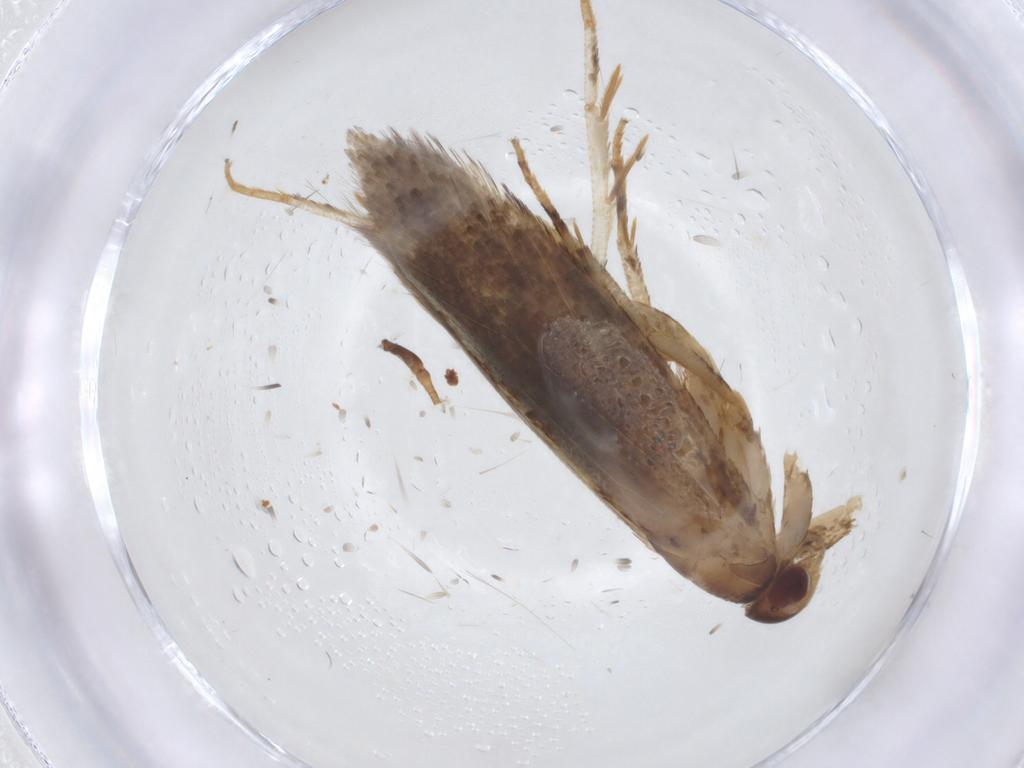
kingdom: Animalia
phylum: Arthropoda
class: Insecta
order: Lepidoptera
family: Cosmopterigidae
